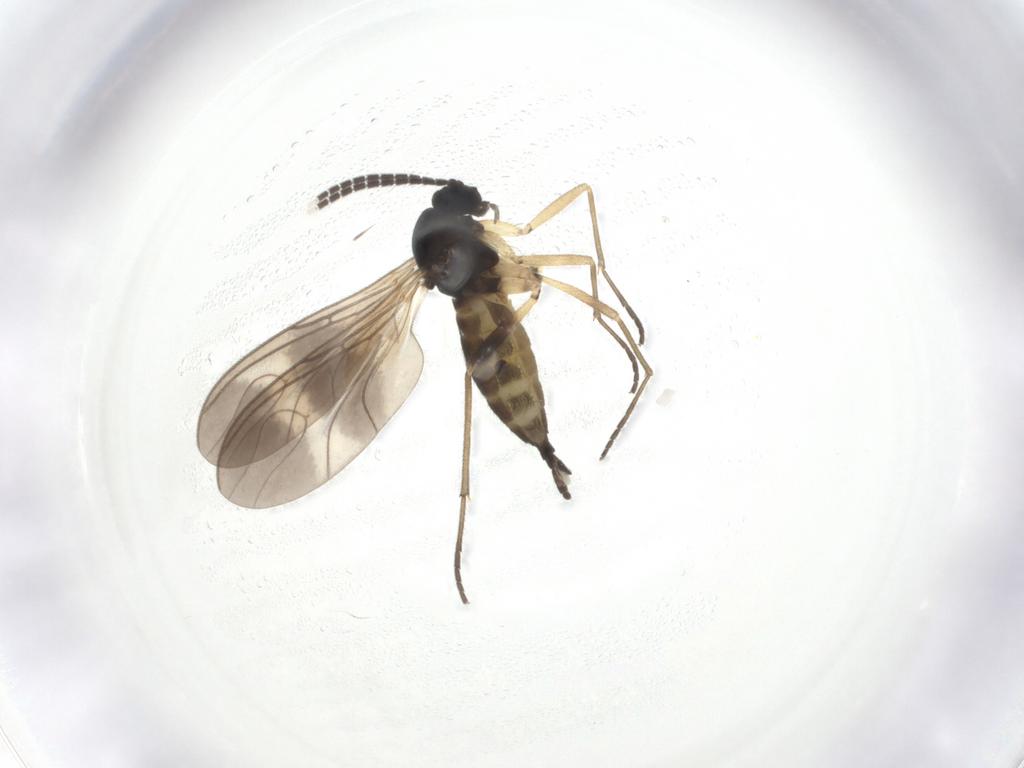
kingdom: Animalia
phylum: Arthropoda
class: Insecta
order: Diptera
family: Sciaridae
